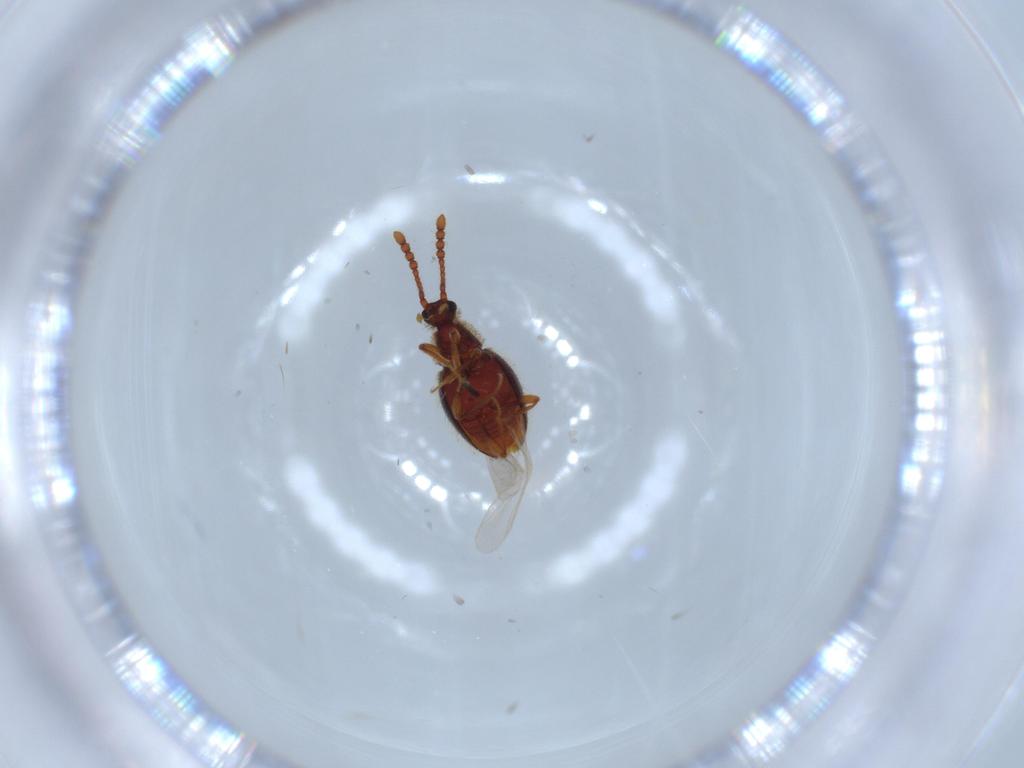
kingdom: Animalia
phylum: Arthropoda
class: Insecta
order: Coleoptera
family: Staphylinidae
